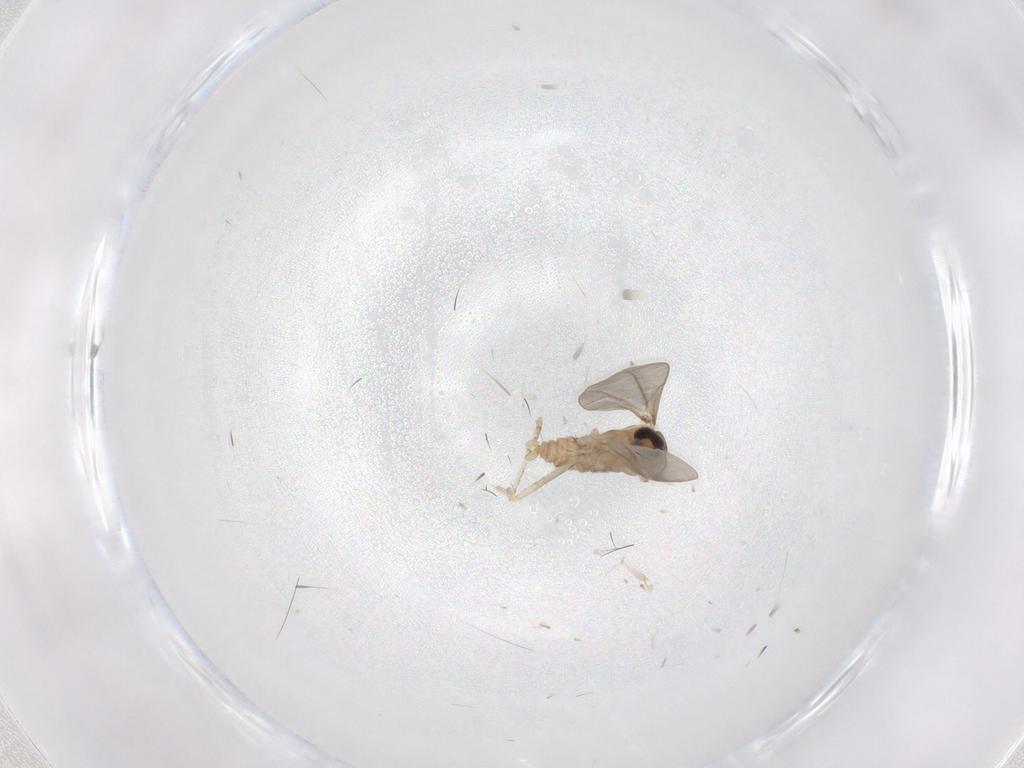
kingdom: Animalia
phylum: Arthropoda
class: Insecta
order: Diptera
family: Cecidomyiidae
